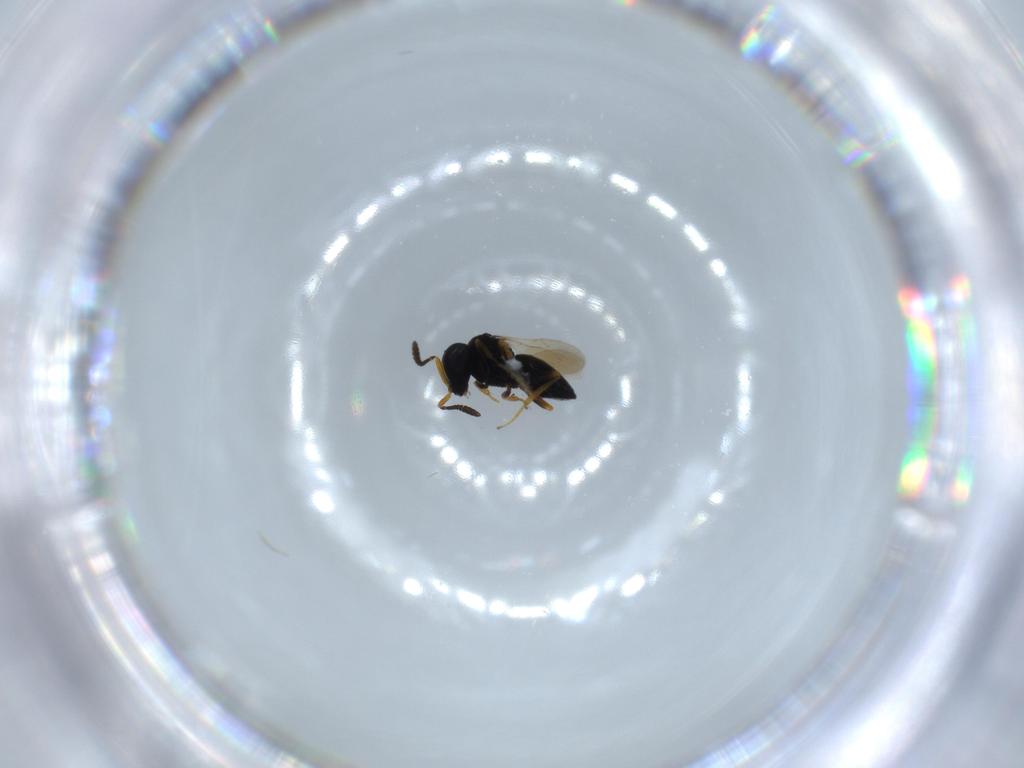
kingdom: Animalia
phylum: Arthropoda
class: Insecta
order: Hymenoptera
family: Scelionidae
